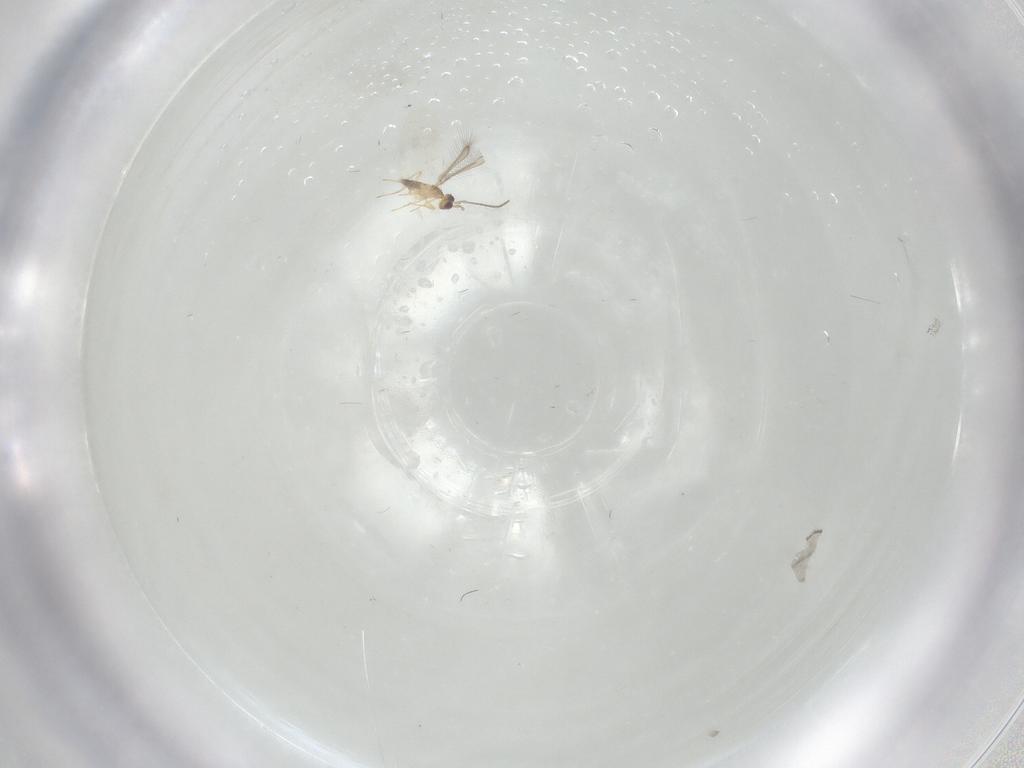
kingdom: Animalia
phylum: Arthropoda
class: Insecta
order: Diptera
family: Cecidomyiidae
